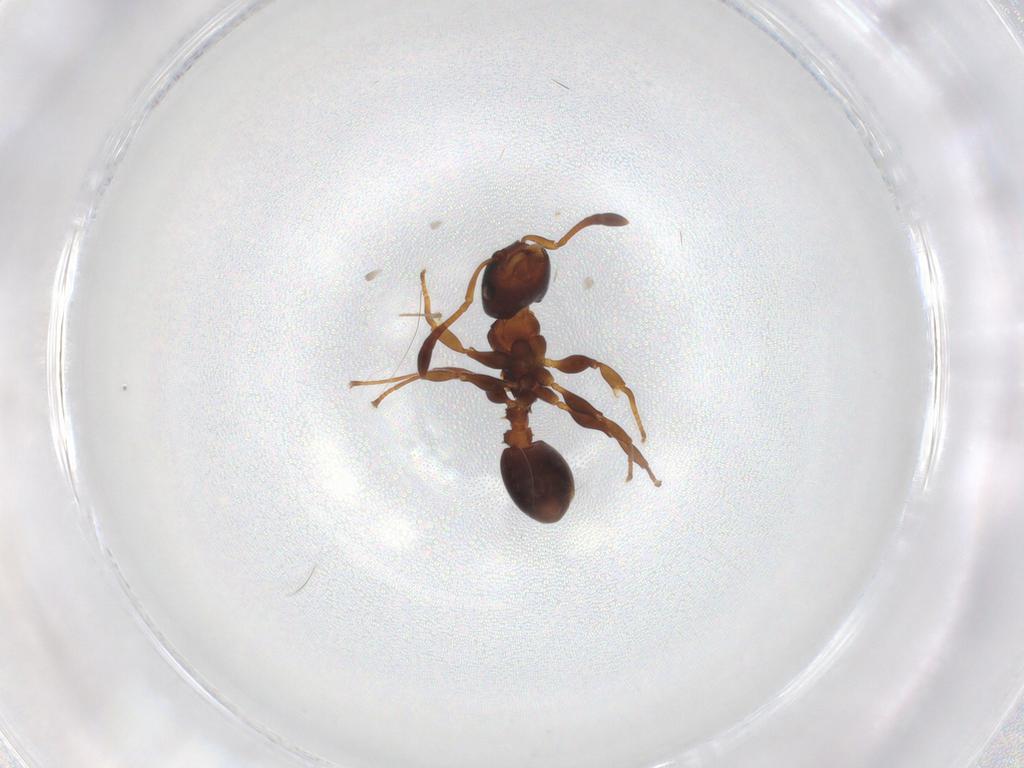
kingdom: Animalia
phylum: Arthropoda
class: Insecta
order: Hymenoptera
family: Formicidae
